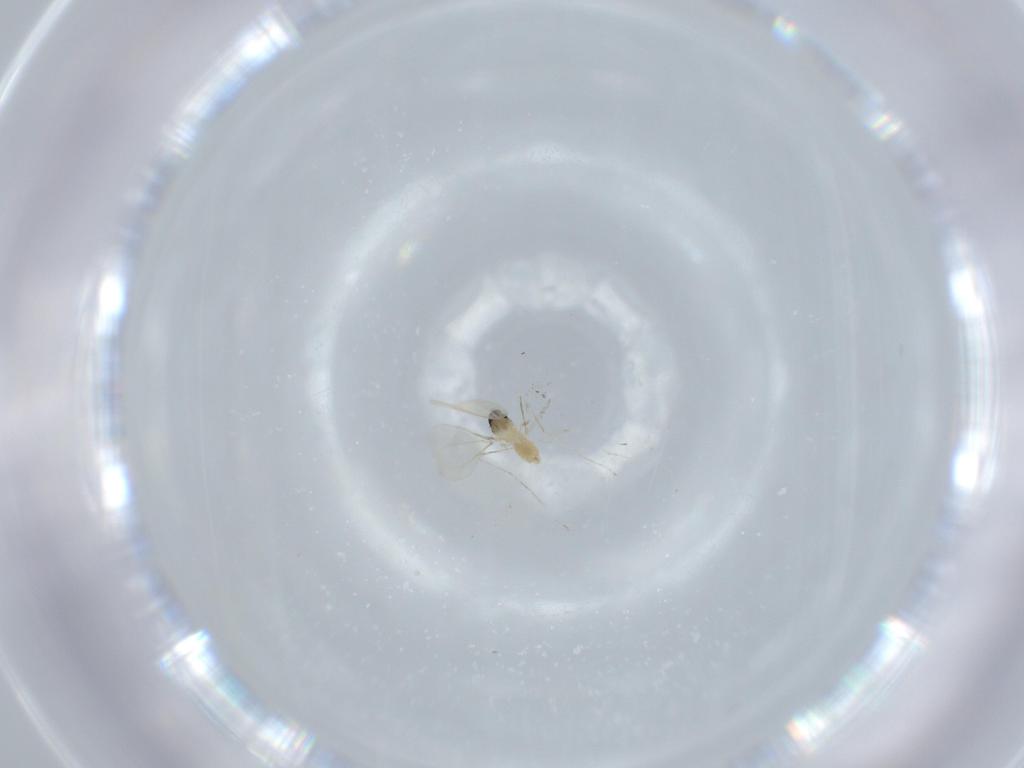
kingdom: Animalia
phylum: Arthropoda
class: Insecta
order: Diptera
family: Cecidomyiidae
